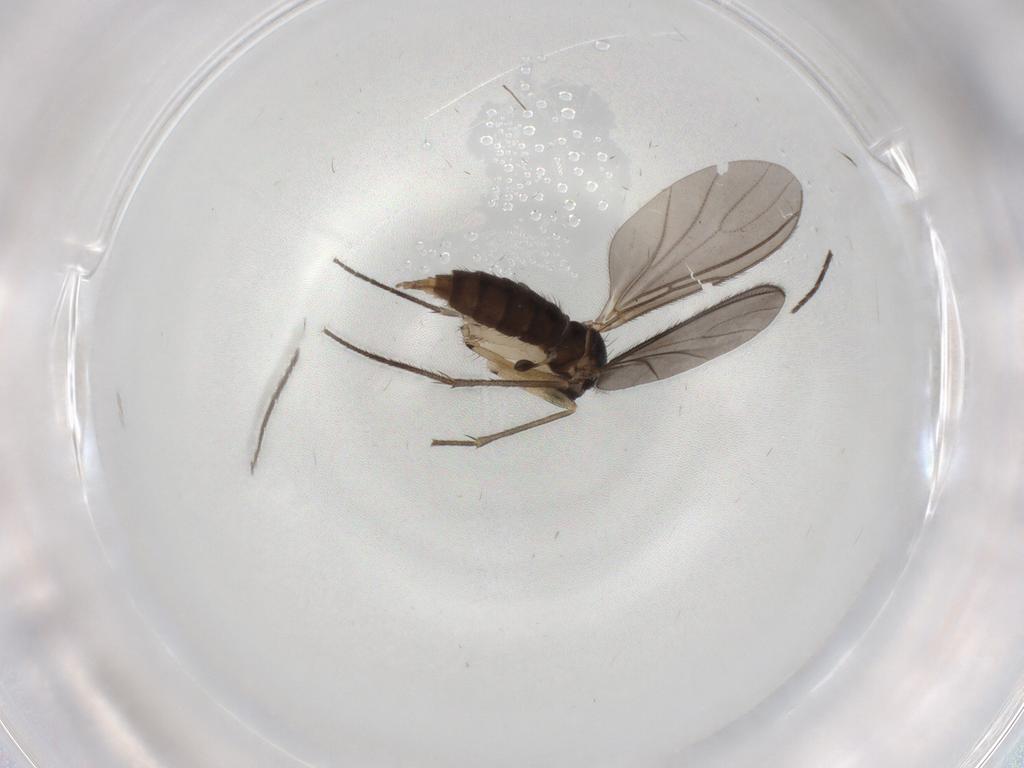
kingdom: Animalia
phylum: Arthropoda
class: Insecta
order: Diptera
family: Sciaridae
